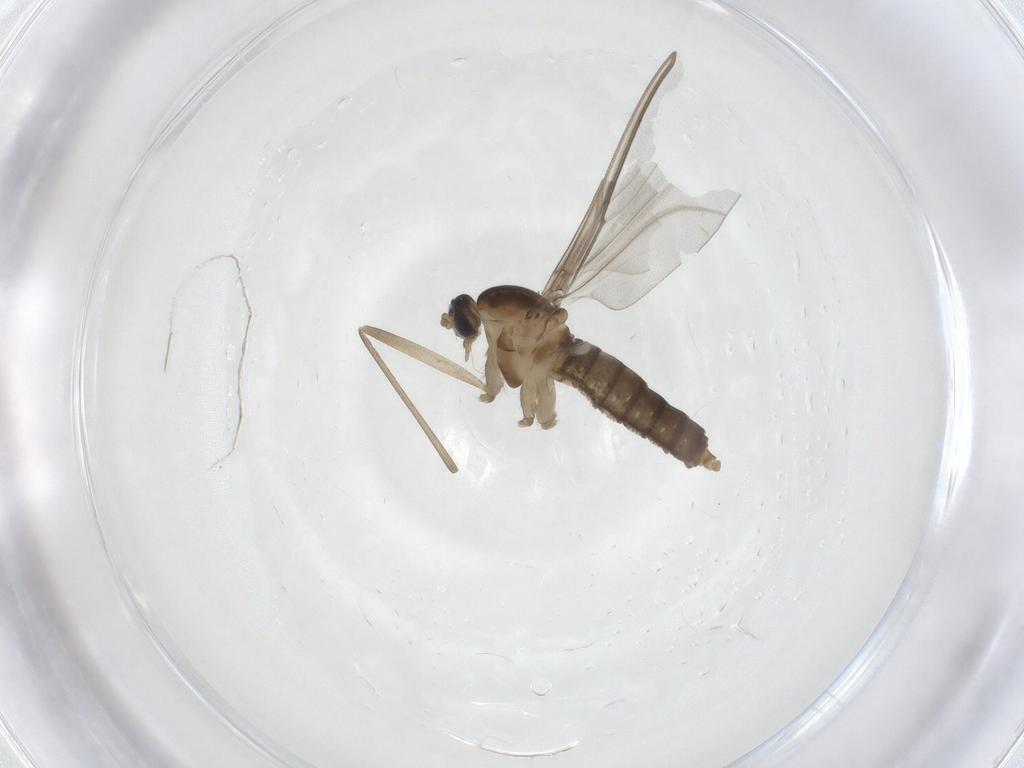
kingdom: Animalia
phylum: Arthropoda
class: Insecta
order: Diptera
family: Cecidomyiidae
